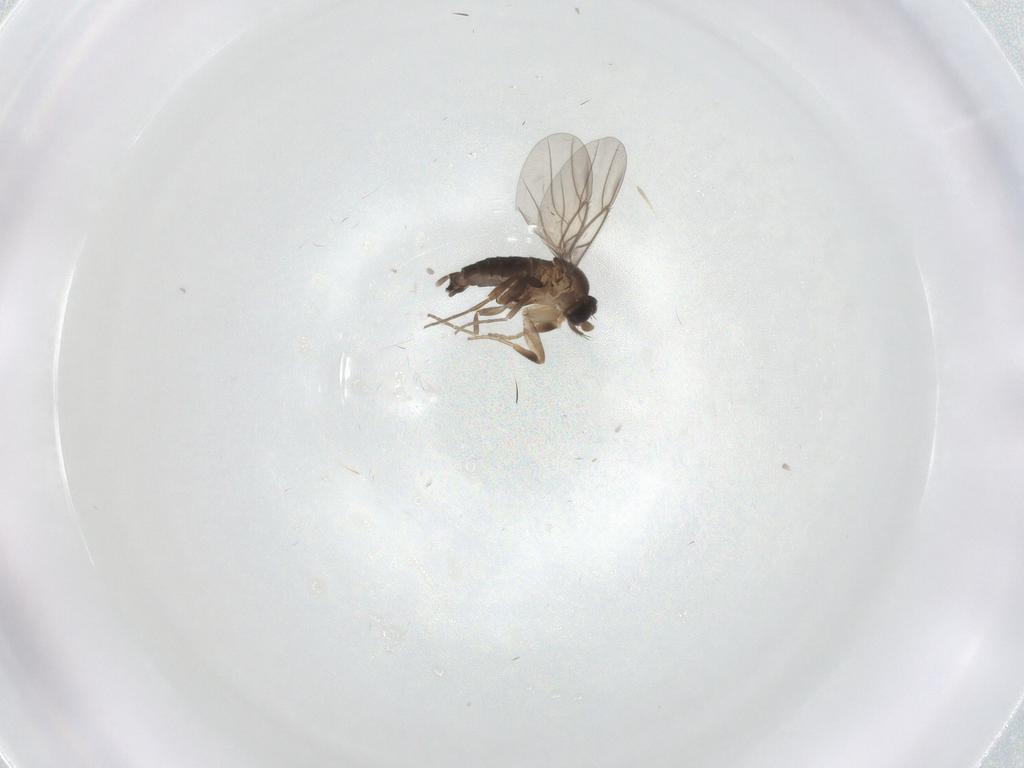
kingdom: Animalia
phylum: Arthropoda
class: Insecta
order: Diptera
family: Phoridae
